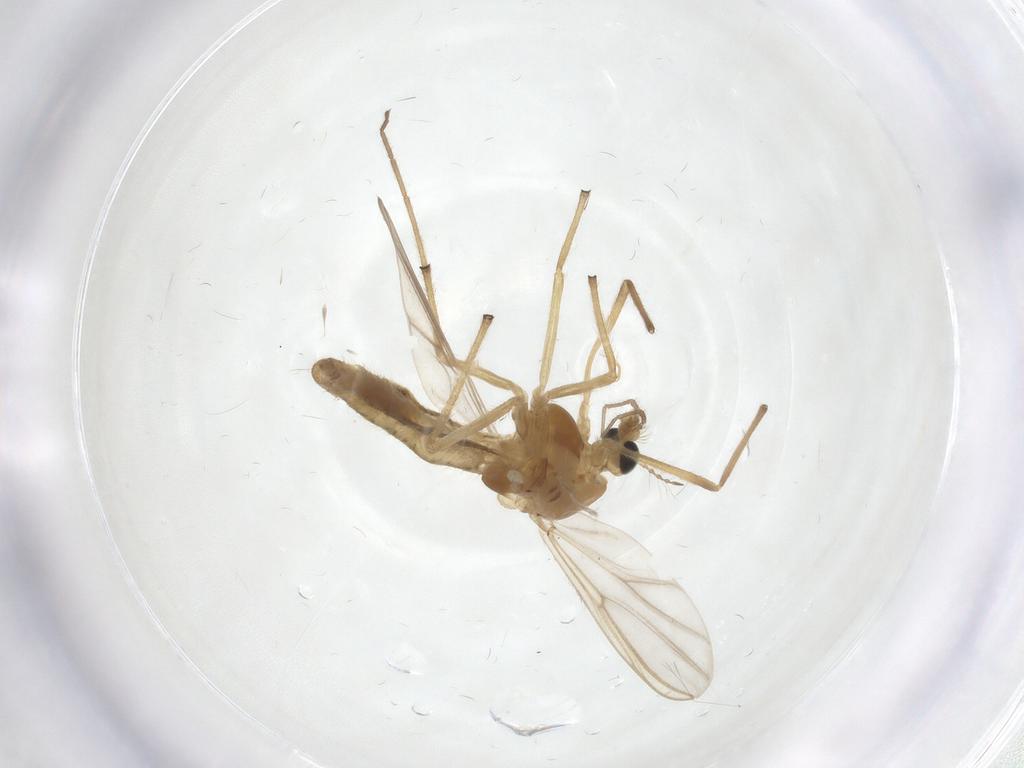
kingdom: Animalia
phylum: Arthropoda
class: Insecta
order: Diptera
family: Chironomidae
